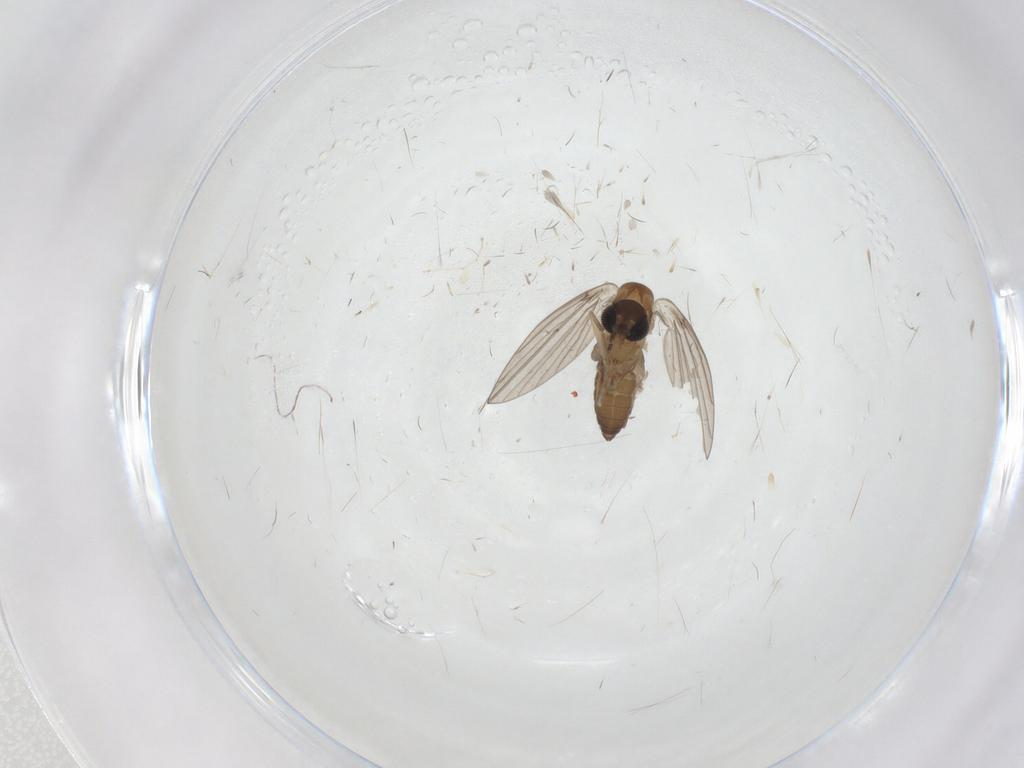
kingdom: Animalia
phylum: Arthropoda
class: Insecta
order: Diptera
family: Cecidomyiidae
